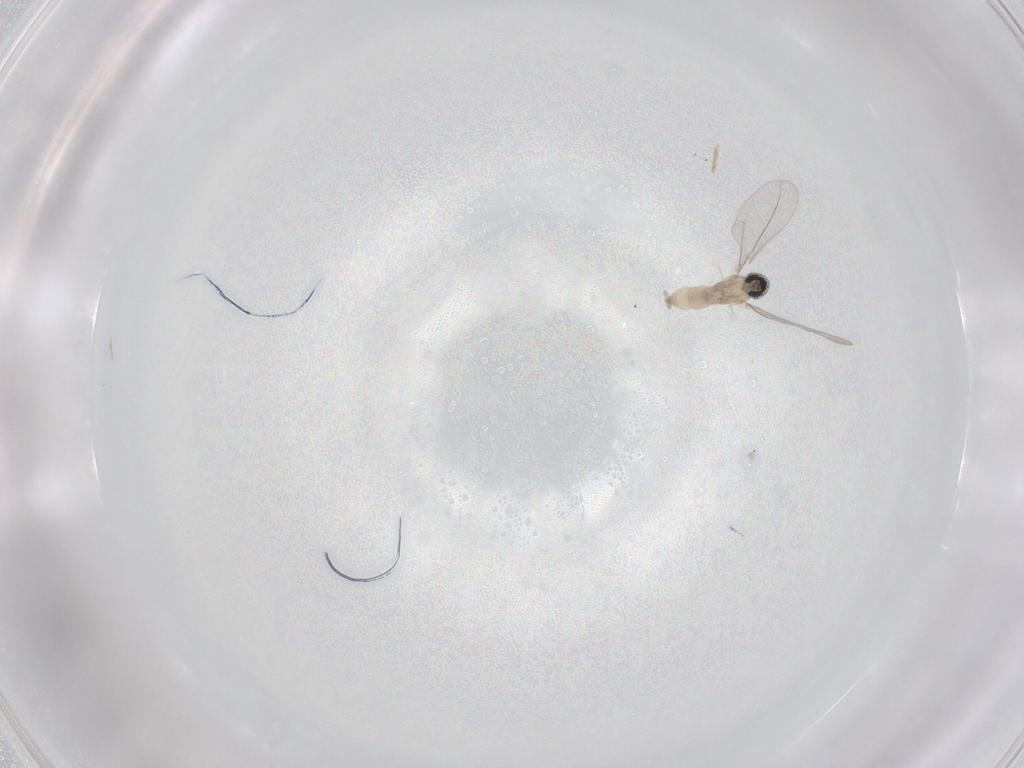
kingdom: Animalia
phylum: Arthropoda
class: Insecta
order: Diptera
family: Cecidomyiidae
